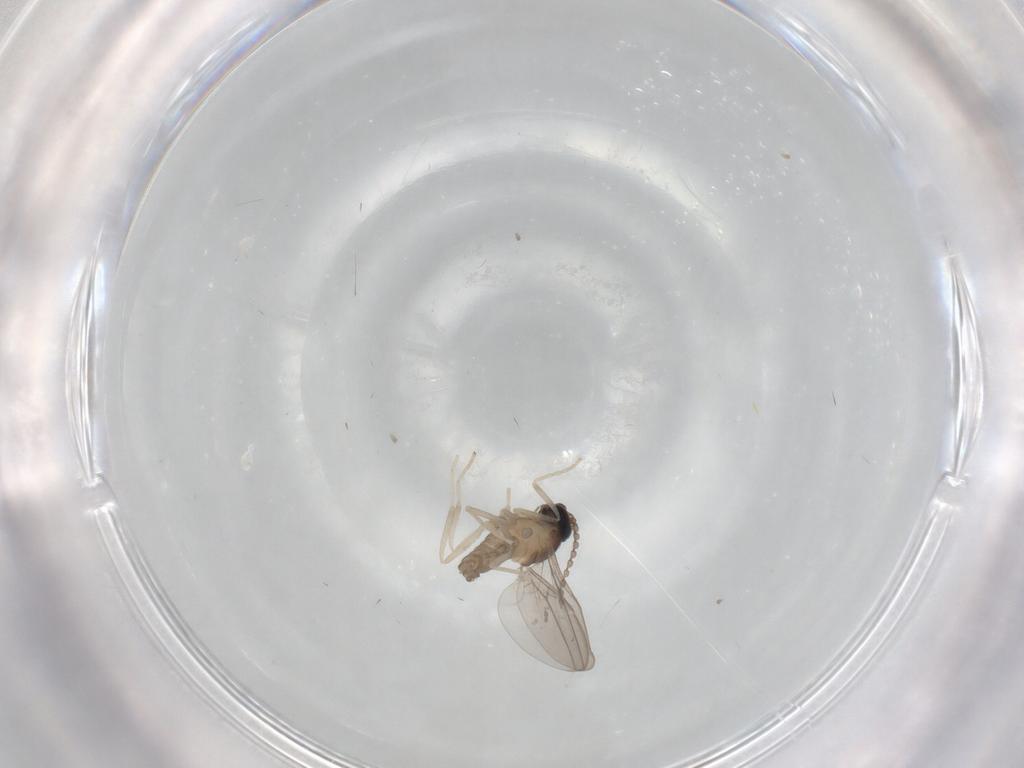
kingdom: Animalia
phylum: Arthropoda
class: Insecta
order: Diptera
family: Cecidomyiidae
